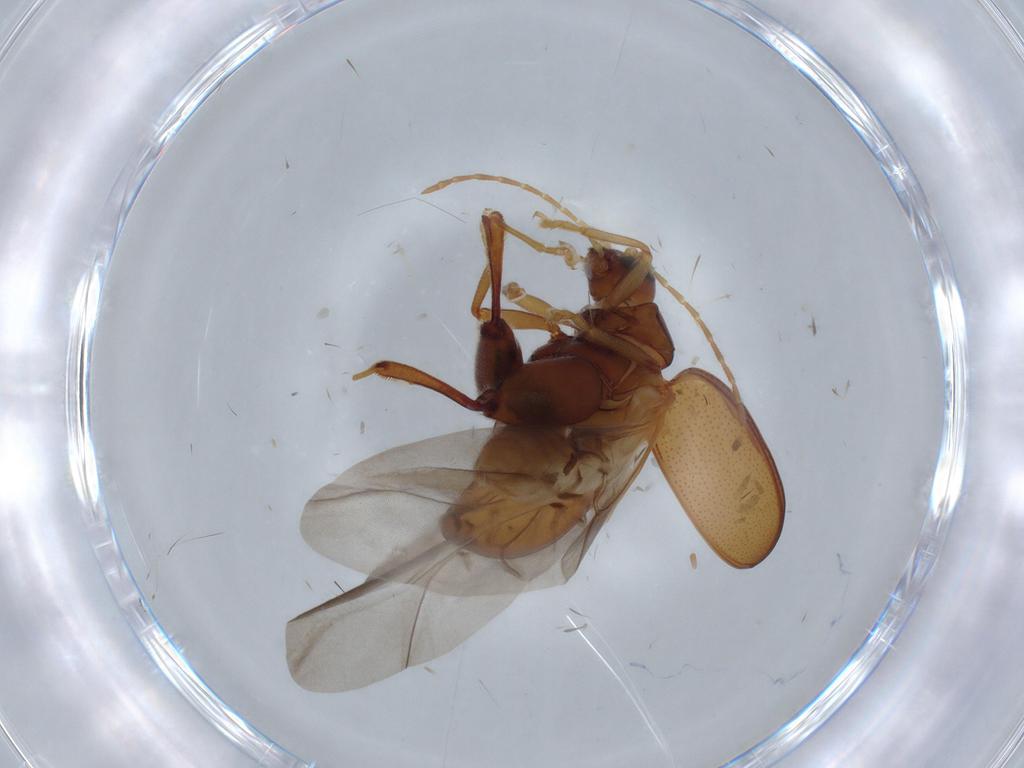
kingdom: Animalia
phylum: Arthropoda
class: Insecta
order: Coleoptera
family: Chrysomelidae
